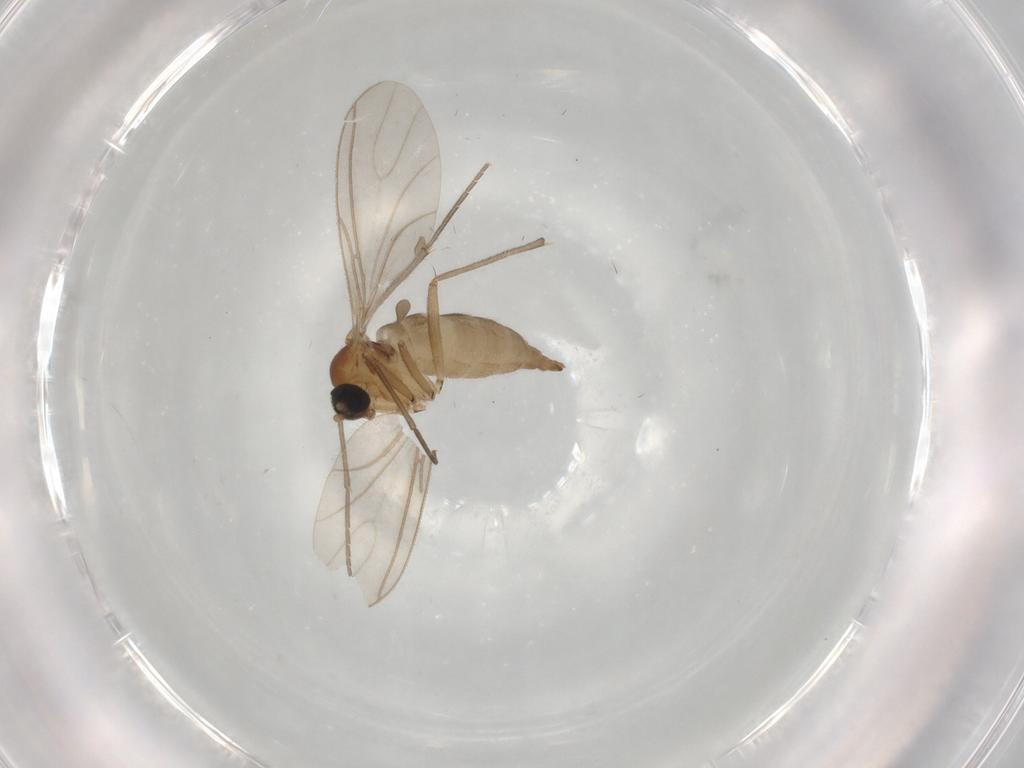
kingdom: Animalia
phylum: Arthropoda
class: Insecta
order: Diptera
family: Sciaridae
